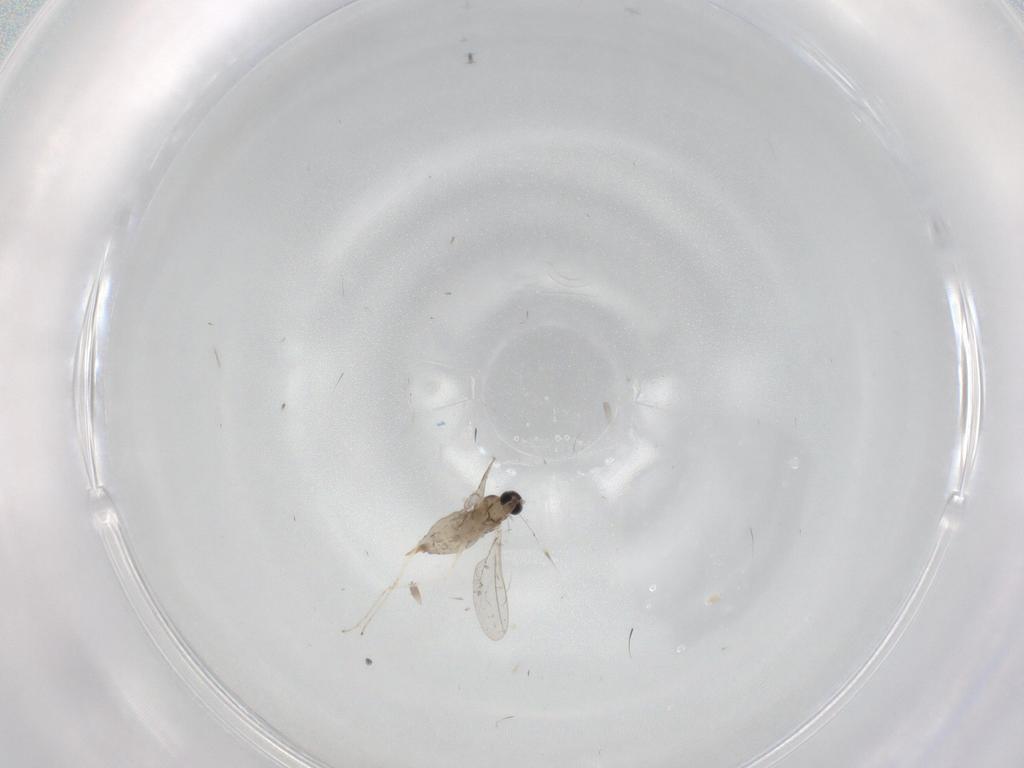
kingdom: Animalia
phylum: Arthropoda
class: Insecta
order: Diptera
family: Cecidomyiidae
